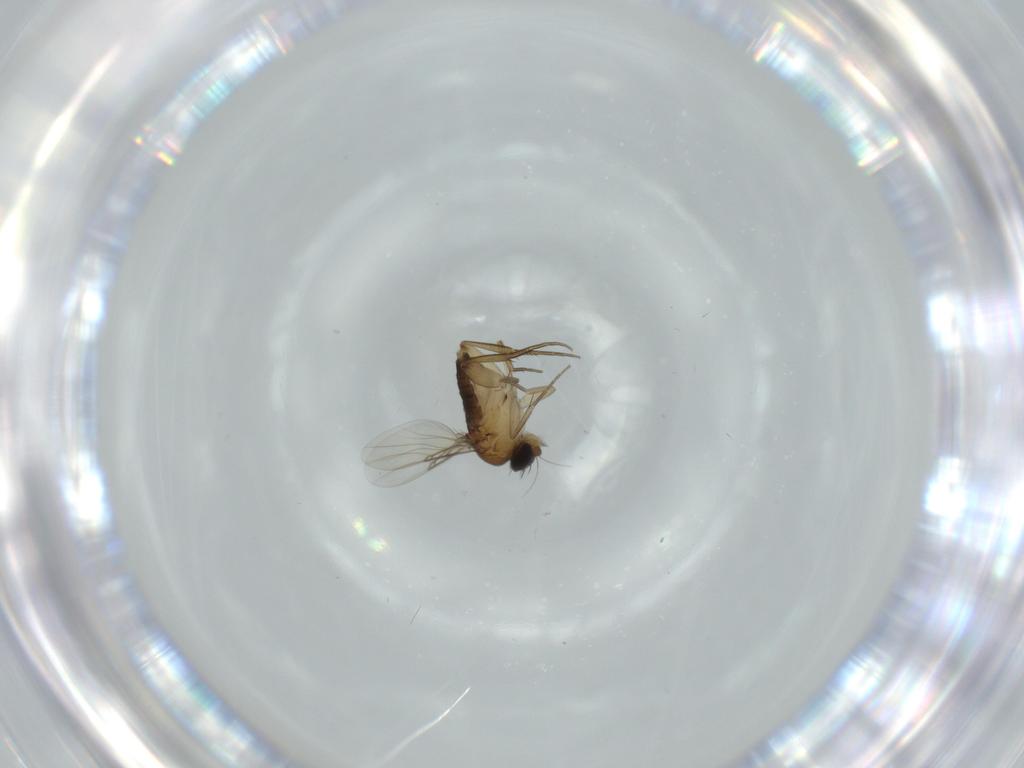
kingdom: Animalia
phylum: Arthropoda
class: Insecta
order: Diptera
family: Phoridae
